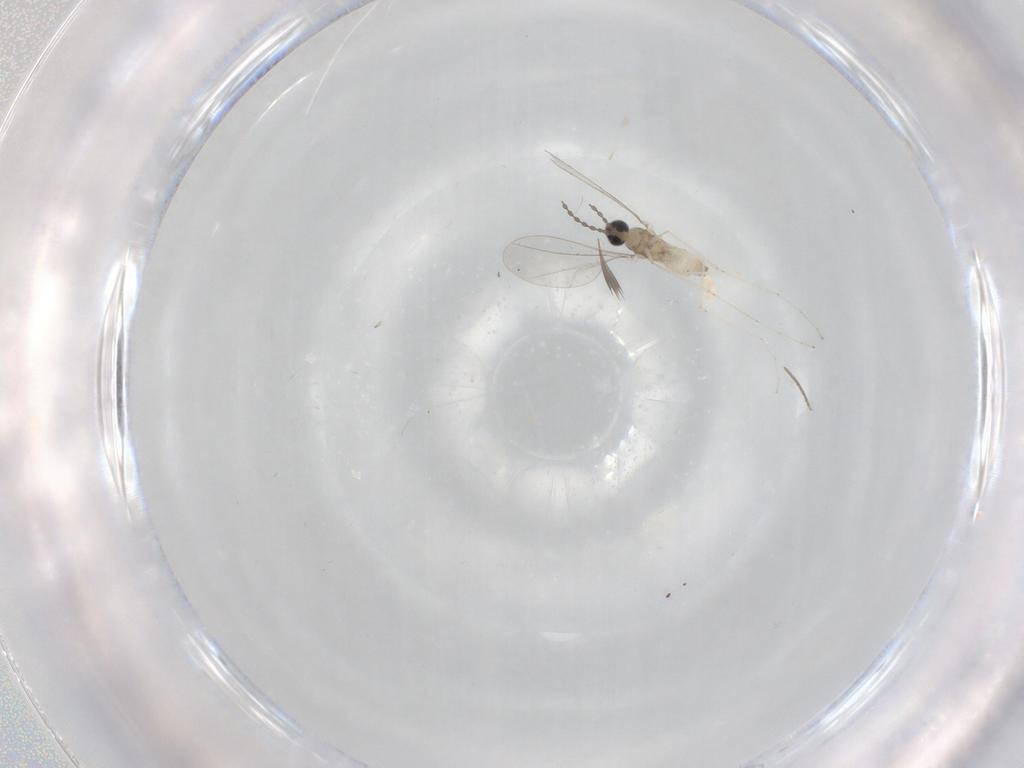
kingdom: Animalia
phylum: Arthropoda
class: Insecta
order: Diptera
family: Cecidomyiidae
